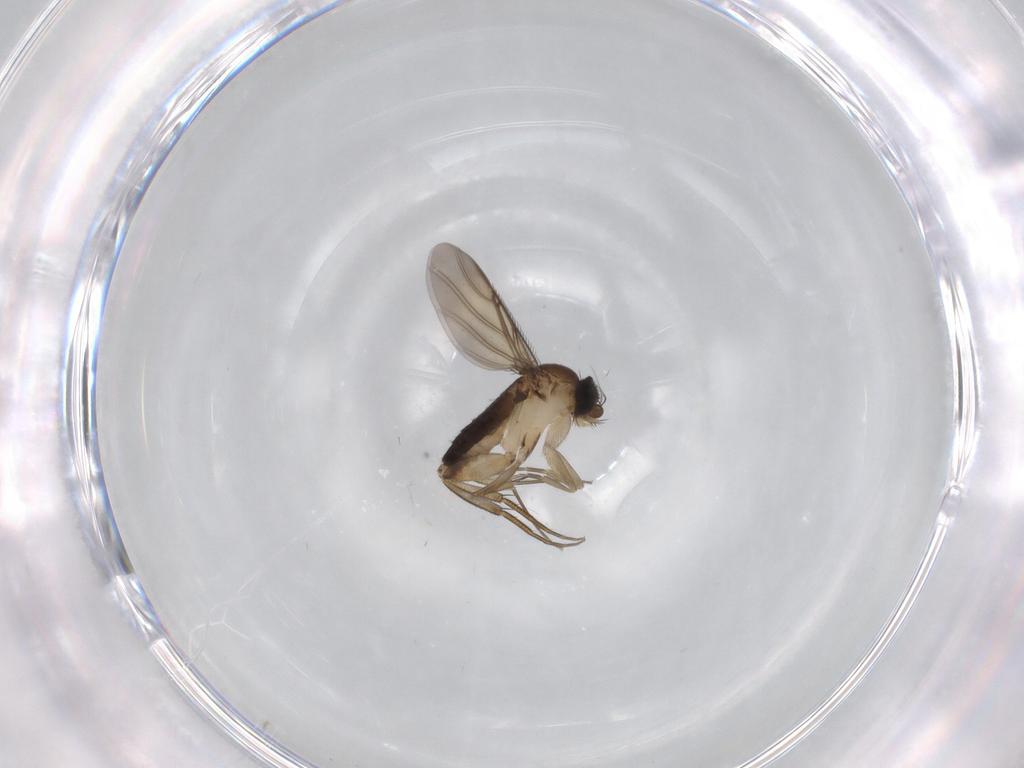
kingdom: Animalia
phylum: Arthropoda
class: Insecta
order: Diptera
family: Phoridae
